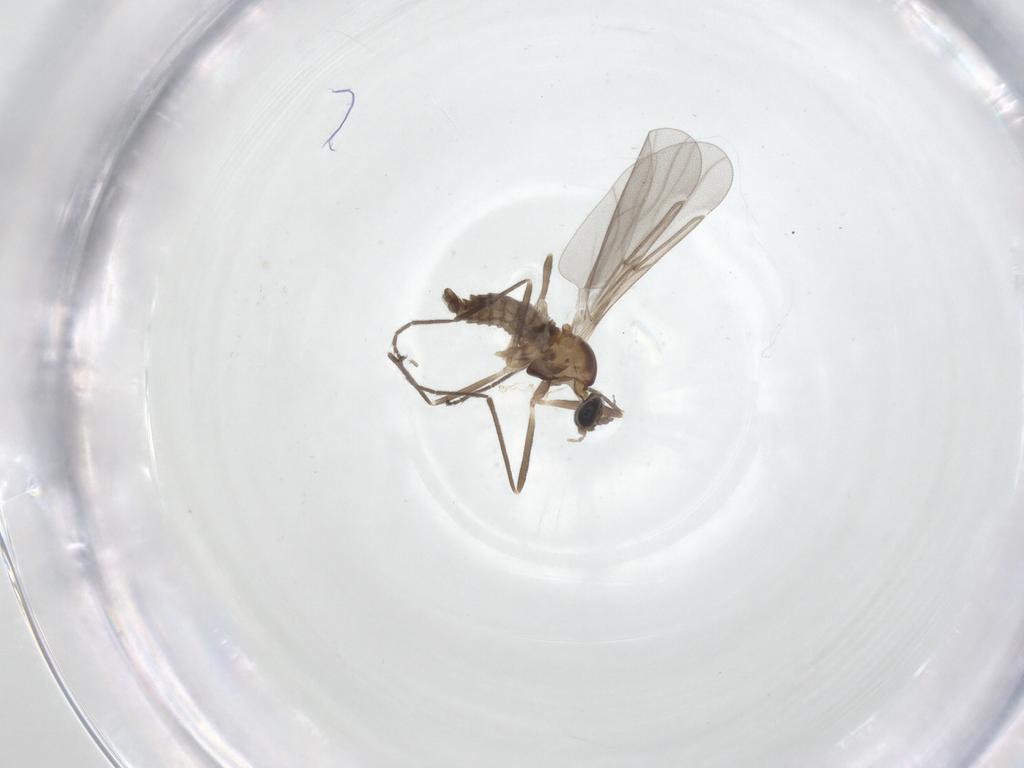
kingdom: Animalia
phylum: Arthropoda
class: Insecta
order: Diptera
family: Cecidomyiidae
